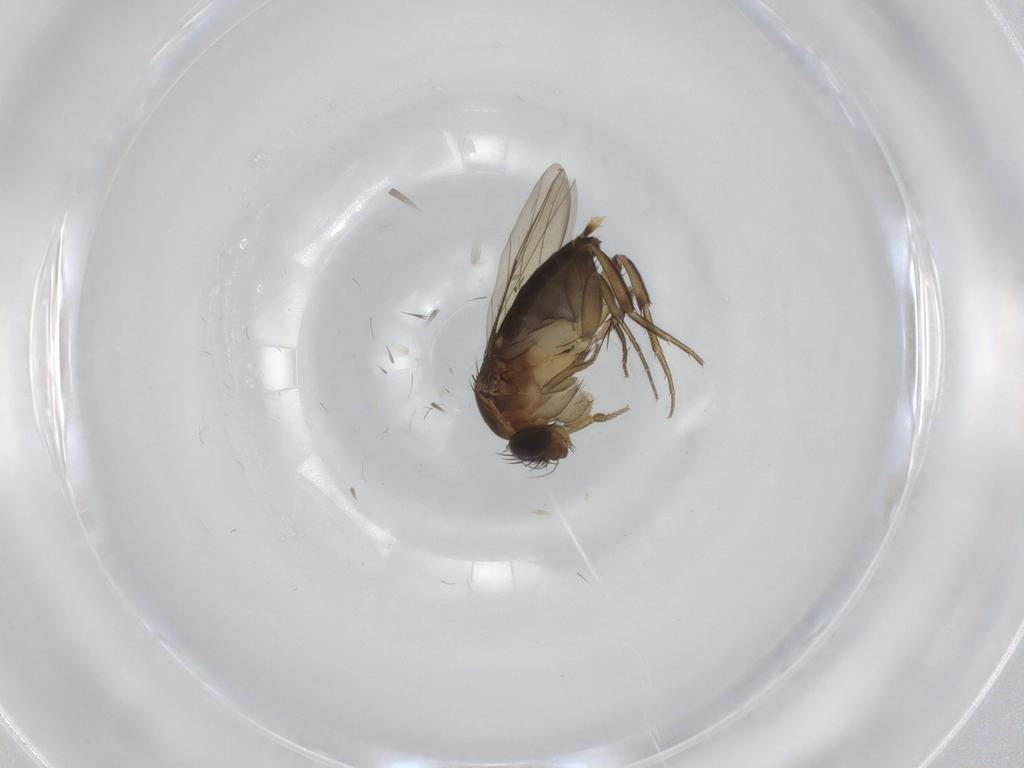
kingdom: Animalia
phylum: Arthropoda
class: Insecta
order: Diptera
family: Phoridae
